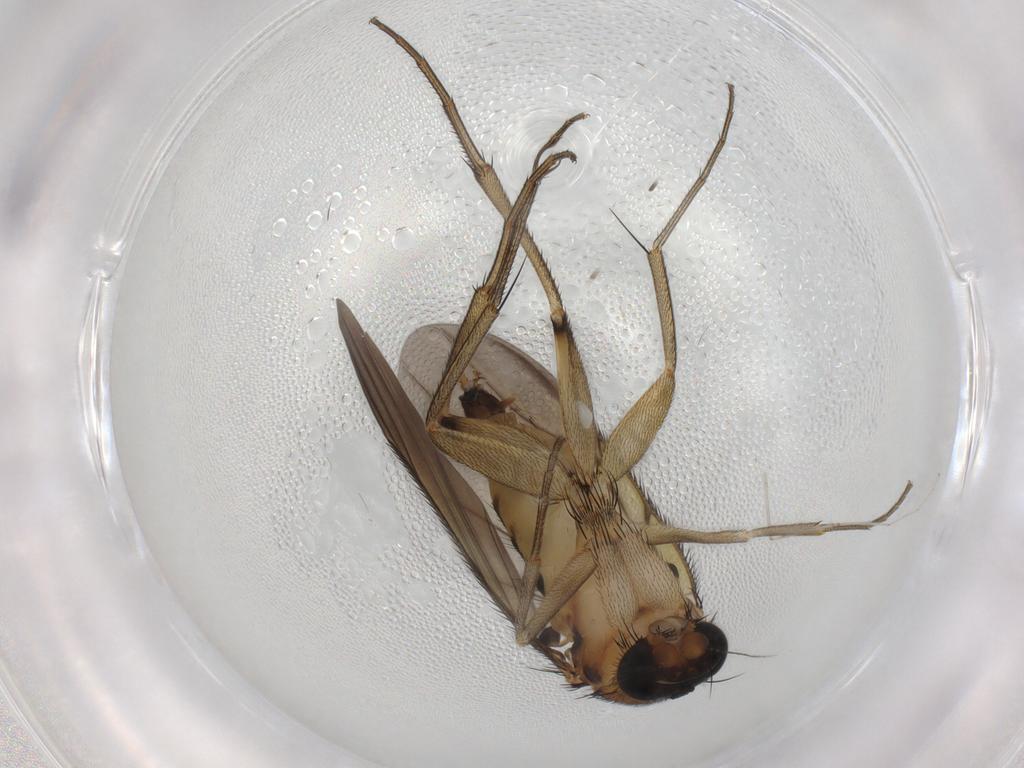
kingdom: Animalia
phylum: Arthropoda
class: Insecta
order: Diptera
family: Phoridae
